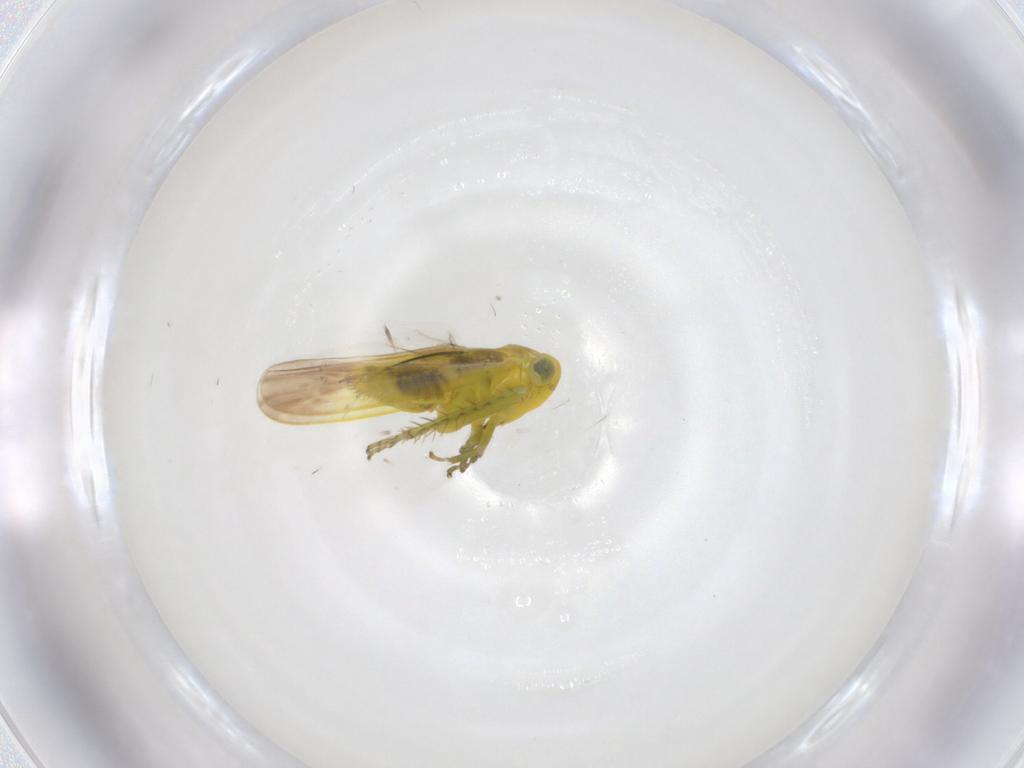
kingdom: Animalia
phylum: Arthropoda
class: Insecta
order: Hemiptera
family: Cicadellidae
